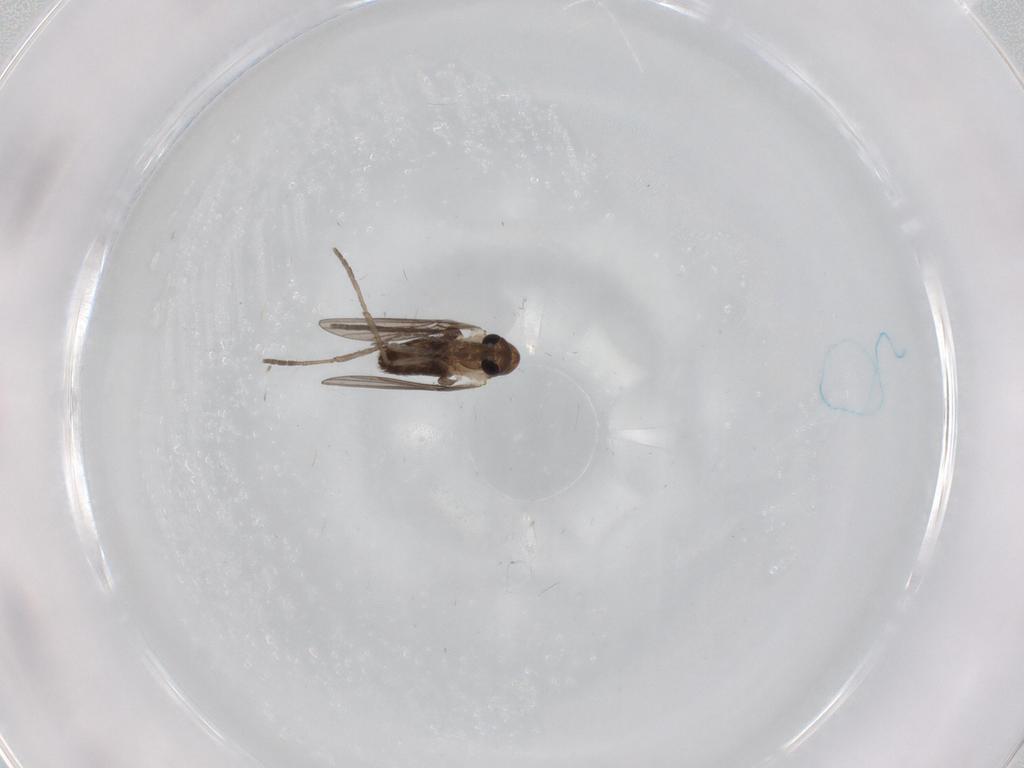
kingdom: Animalia
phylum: Arthropoda
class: Insecta
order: Diptera
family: Psychodidae
